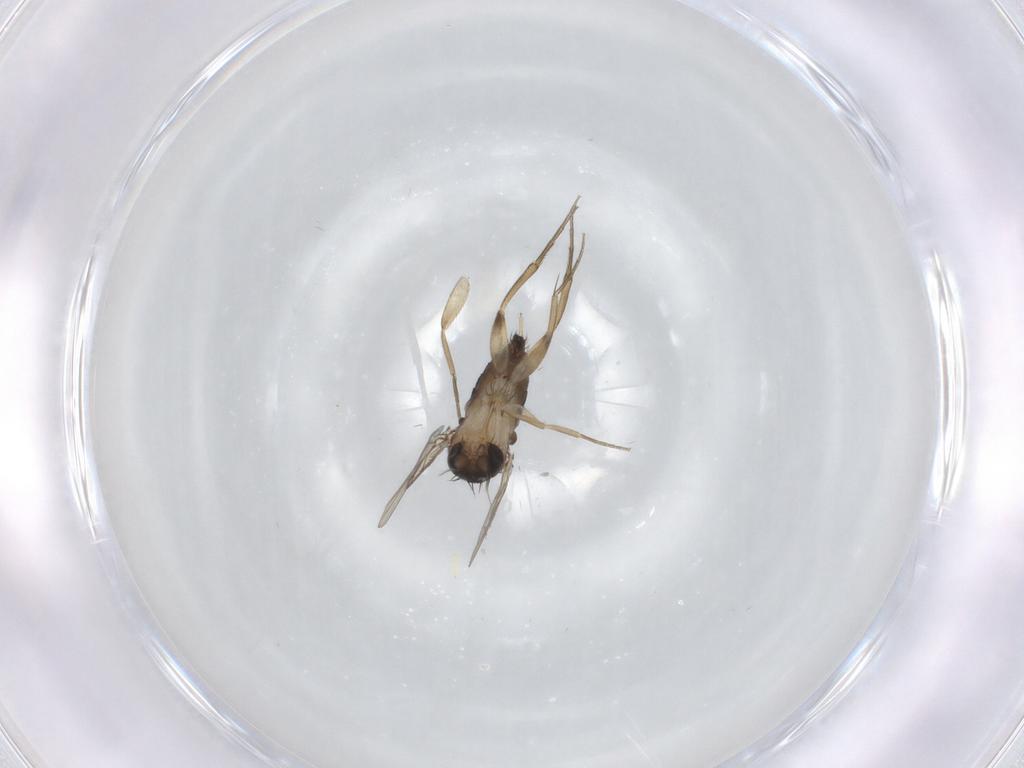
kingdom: Animalia
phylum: Arthropoda
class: Insecta
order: Diptera
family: Phoridae
